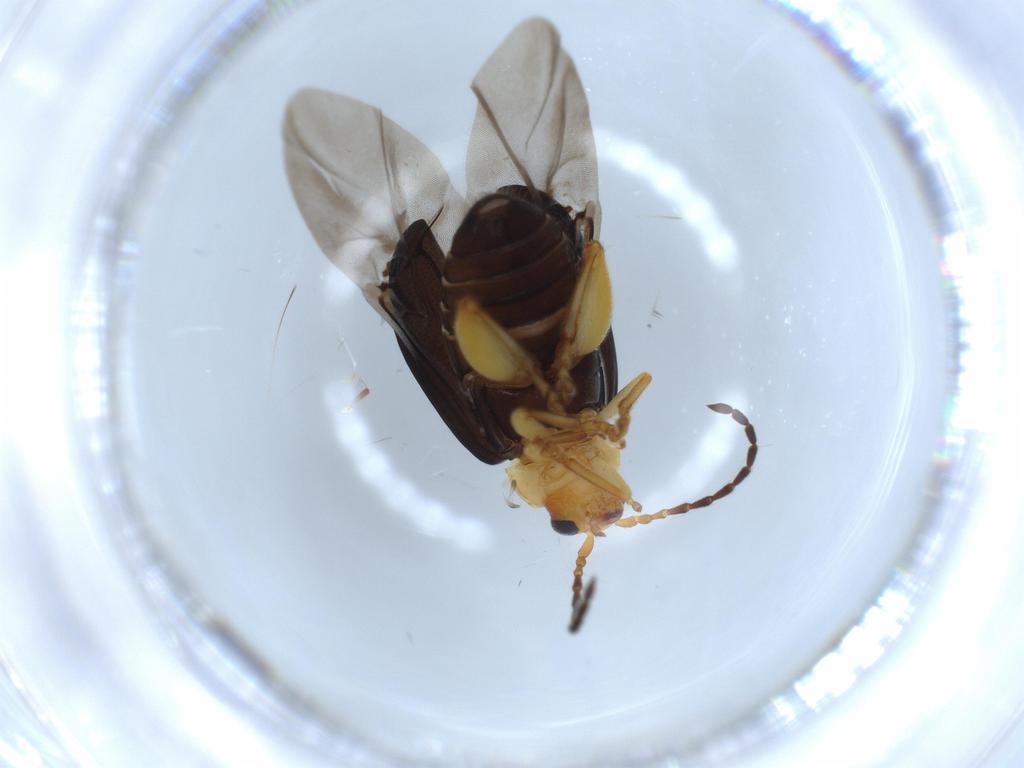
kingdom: Animalia
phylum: Arthropoda
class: Insecta
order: Coleoptera
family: Chrysomelidae
